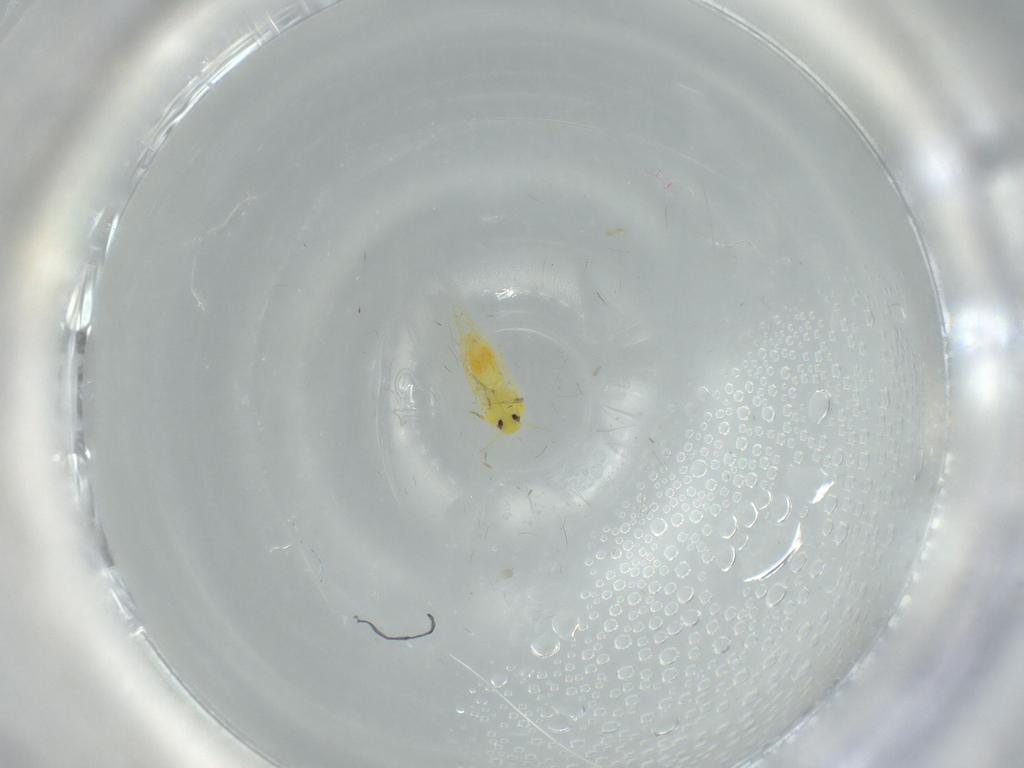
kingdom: Animalia
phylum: Arthropoda
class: Insecta
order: Hemiptera
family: Aleyrodidae
